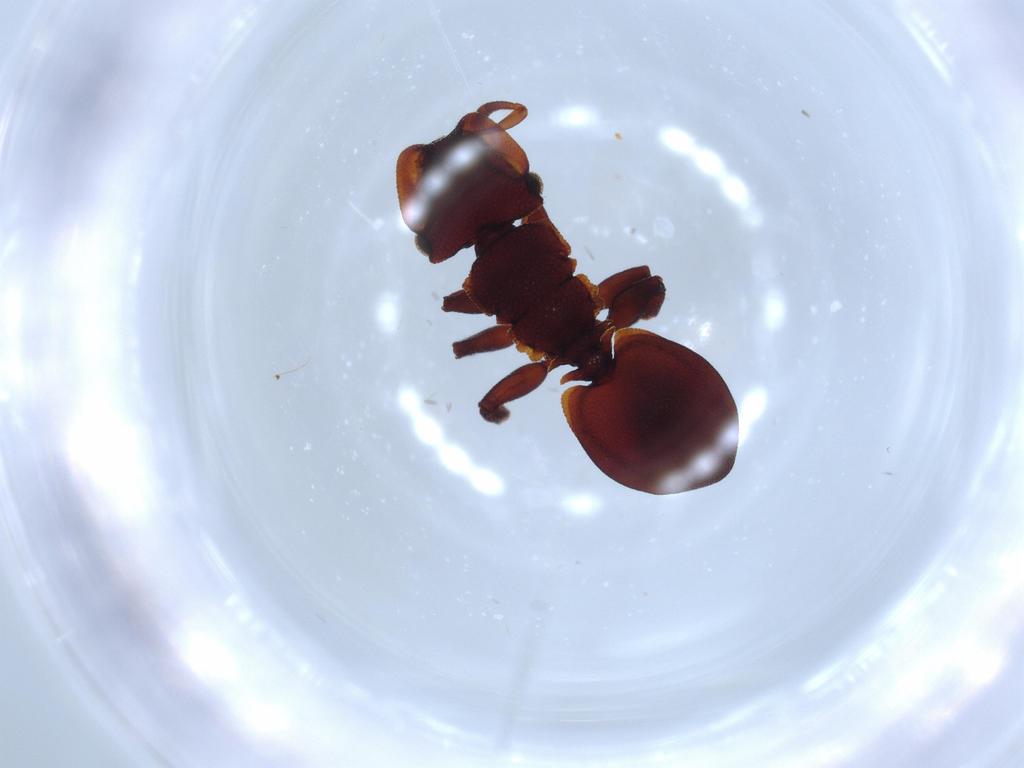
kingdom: Animalia
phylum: Arthropoda
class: Insecta
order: Hymenoptera
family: Formicidae
